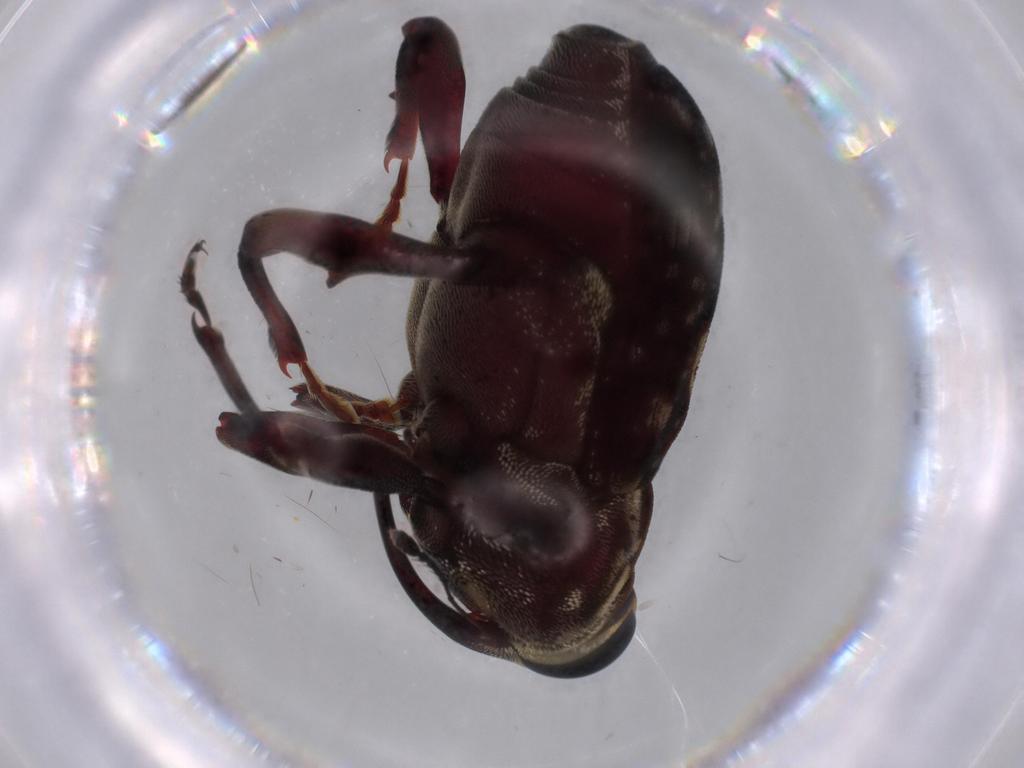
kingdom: Animalia
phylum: Arthropoda
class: Insecta
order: Coleoptera
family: Curculionidae
